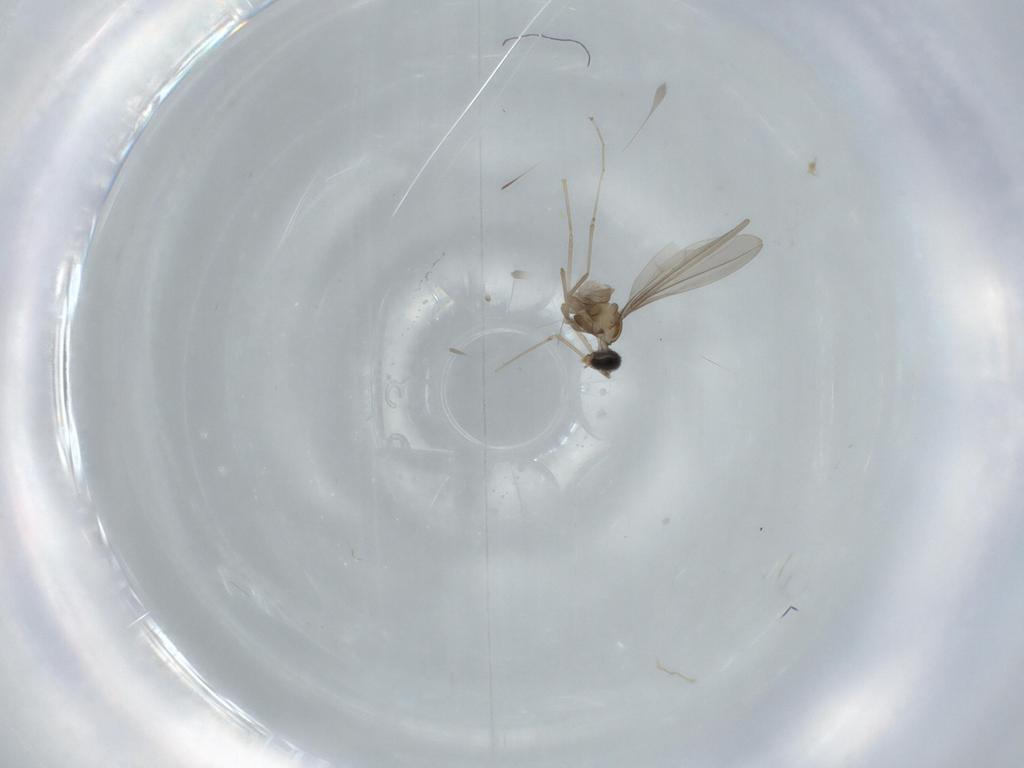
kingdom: Animalia
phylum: Arthropoda
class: Insecta
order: Diptera
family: Cecidomyiidae
